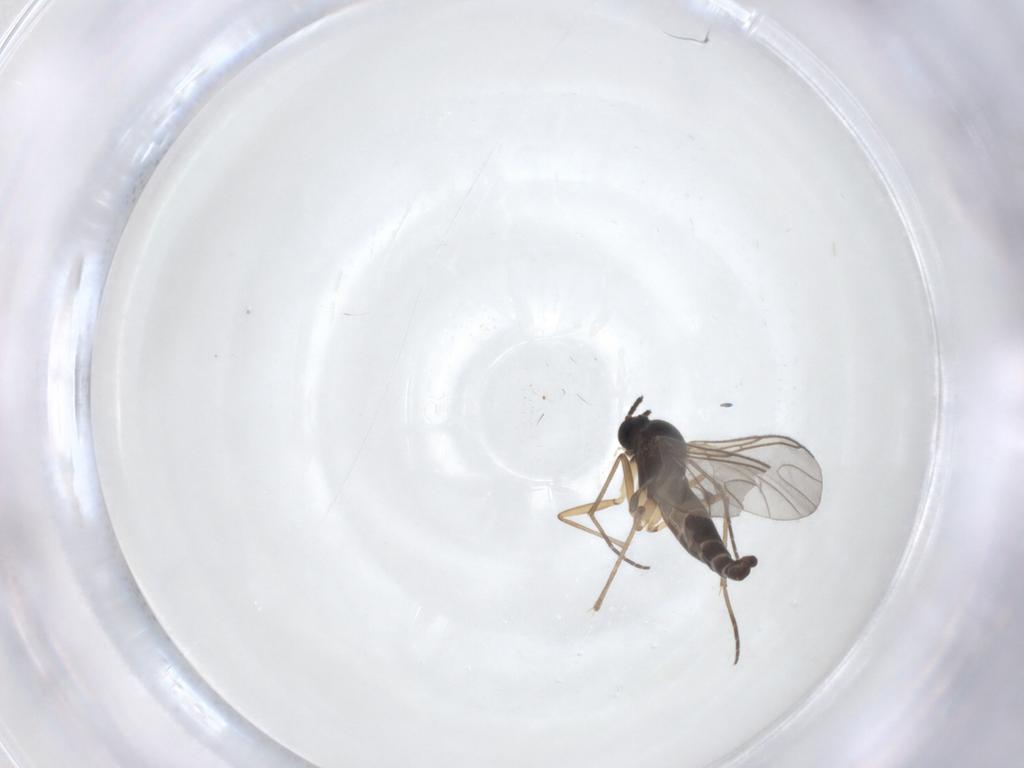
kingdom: Animalia
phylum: Arthropoda
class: Insecta
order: Diptera
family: Sciaridae
